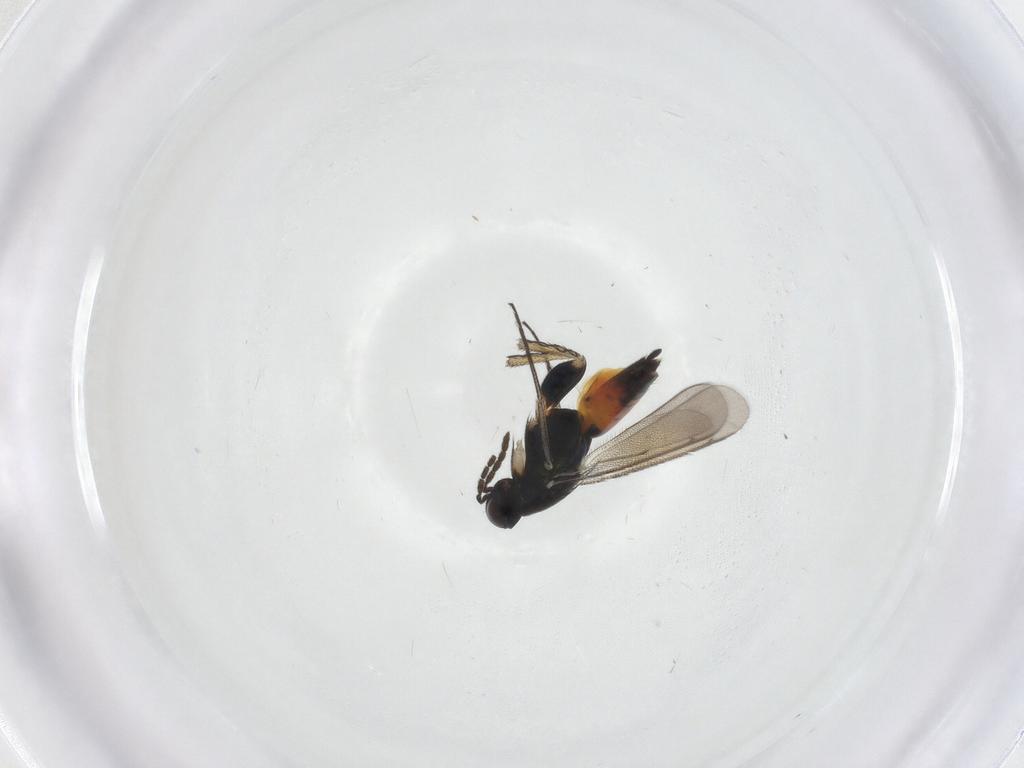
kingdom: Animalia
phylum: Arthropoda
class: Insecta
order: Hymenoptera
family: Eulophidae
